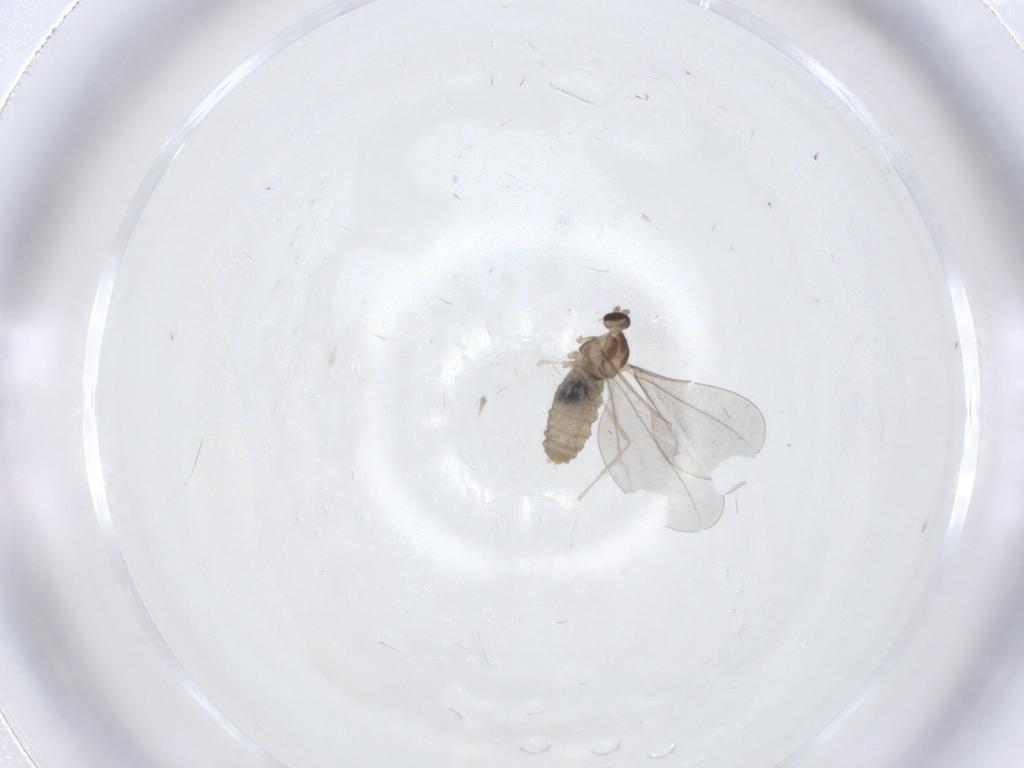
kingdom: Animalia
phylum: Arthropoda
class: Insecta
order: Diptera
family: Cecidomyiidae
